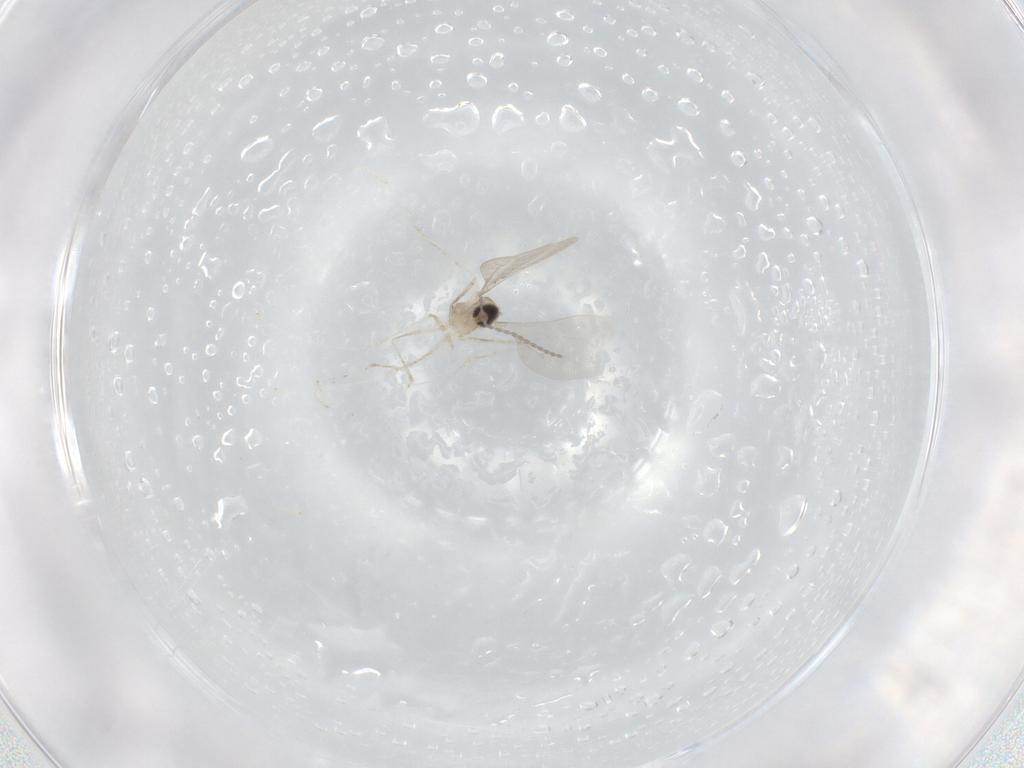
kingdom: Animalia
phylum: Arthropoda
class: Insecta
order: Diptera
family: Cecidomyiidae
